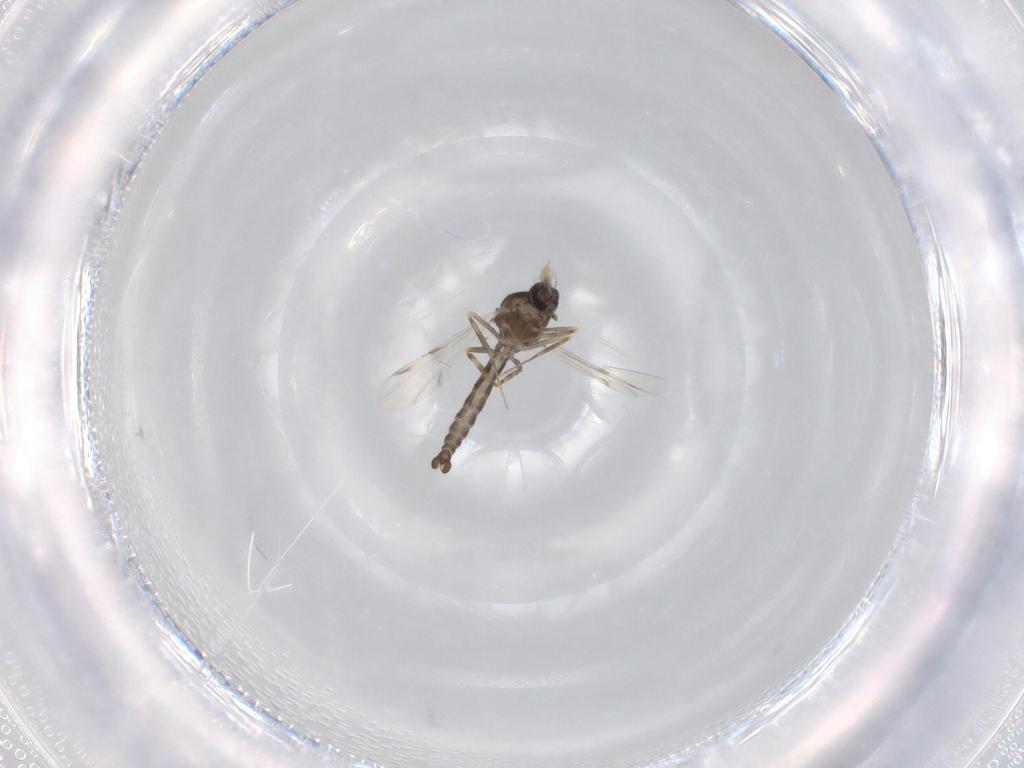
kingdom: Animalia
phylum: Arthropoda
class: Insecta
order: Diptera
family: Ceratopogonidae
